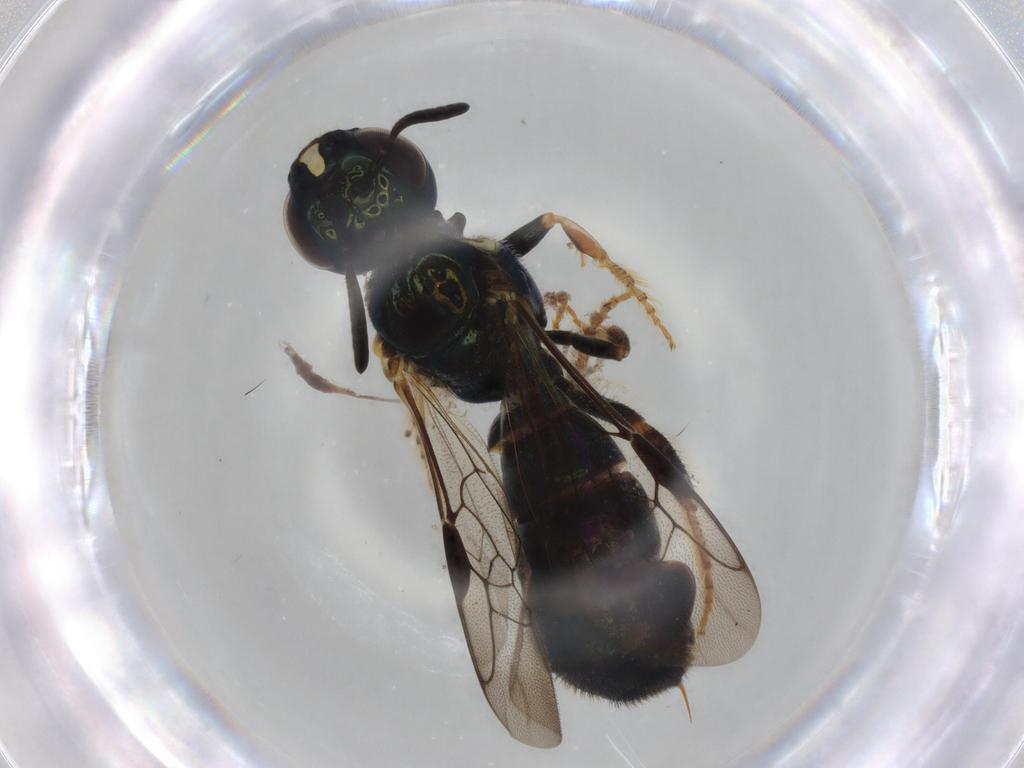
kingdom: Animalia
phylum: Arthropoda
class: Insecta
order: Hymenoptera
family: Apidae
